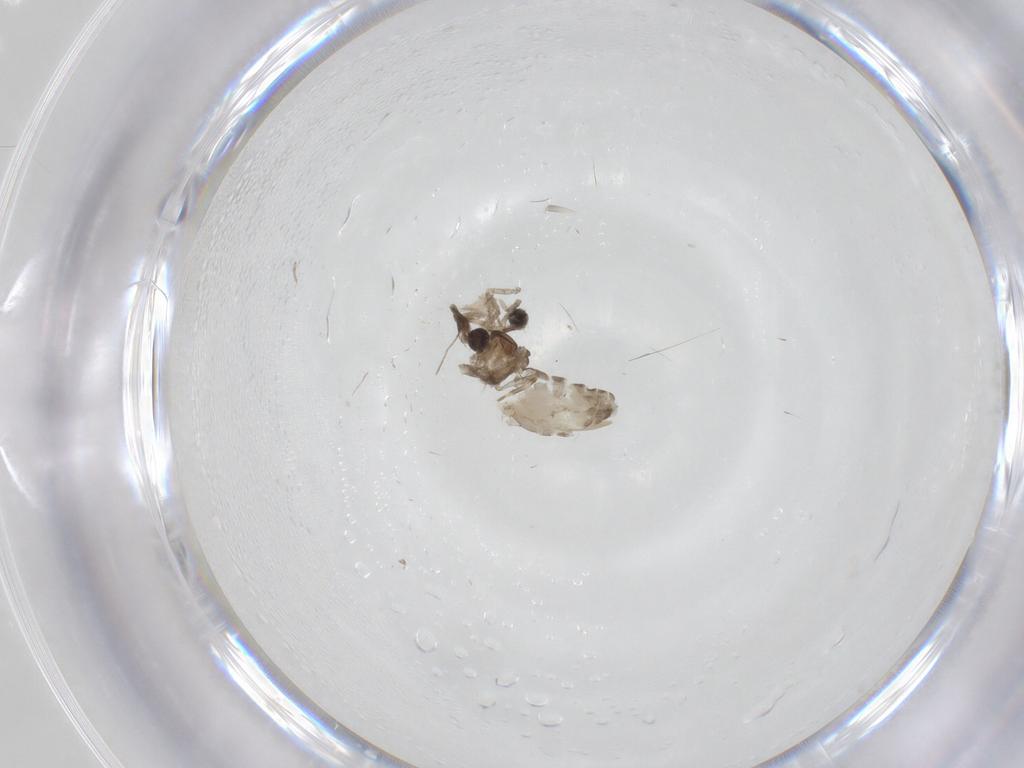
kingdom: Animalia
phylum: Arthropoda
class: Insecta
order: Diptera
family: Ceratopogonidae
